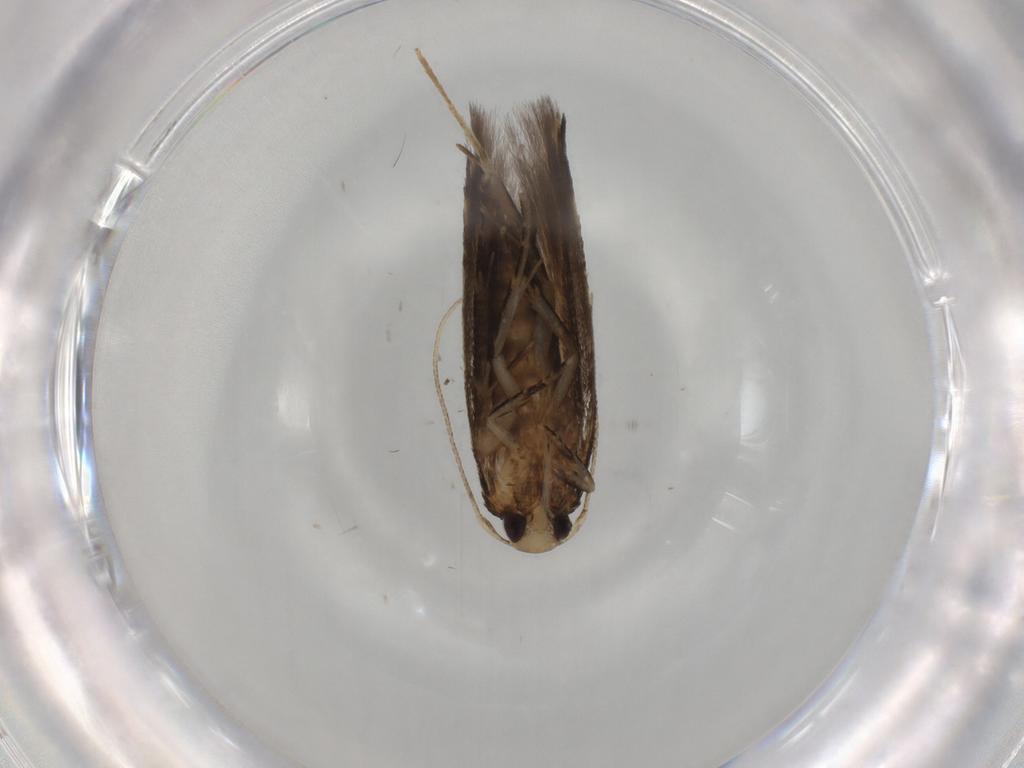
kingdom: Animalia
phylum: Arthropoda
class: Insecta
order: Lepidoptera
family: Cosmopterigidae
